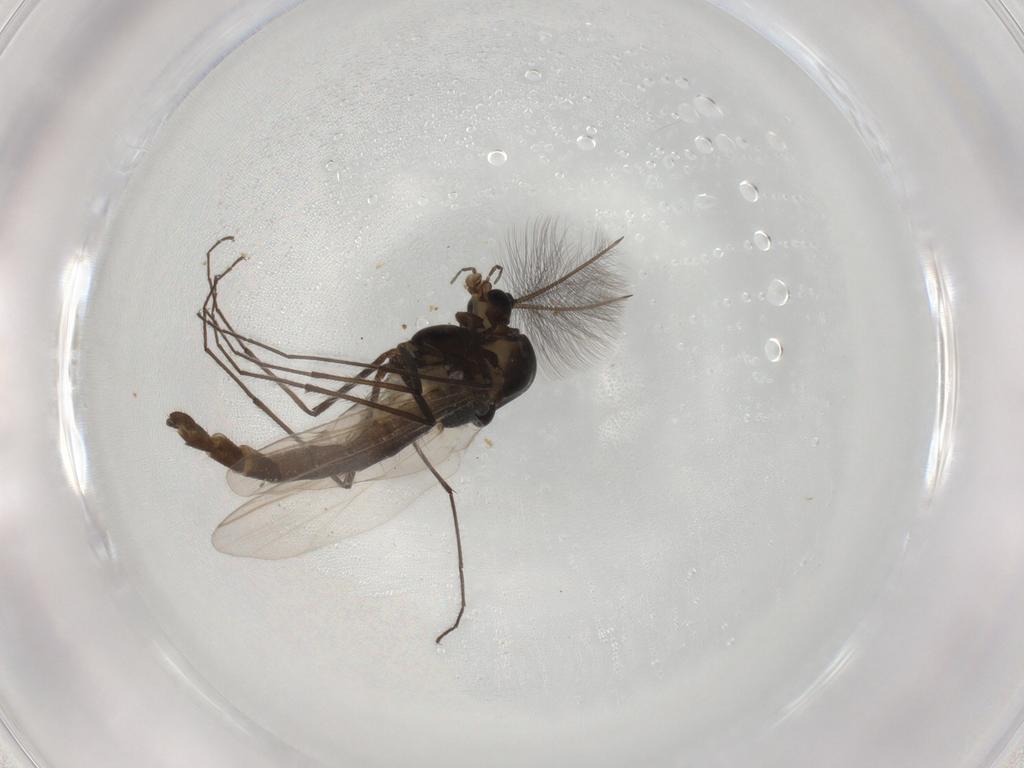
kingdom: Animalia
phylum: Arthropoda
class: Insecta
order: Diptera
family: Chironomidae
